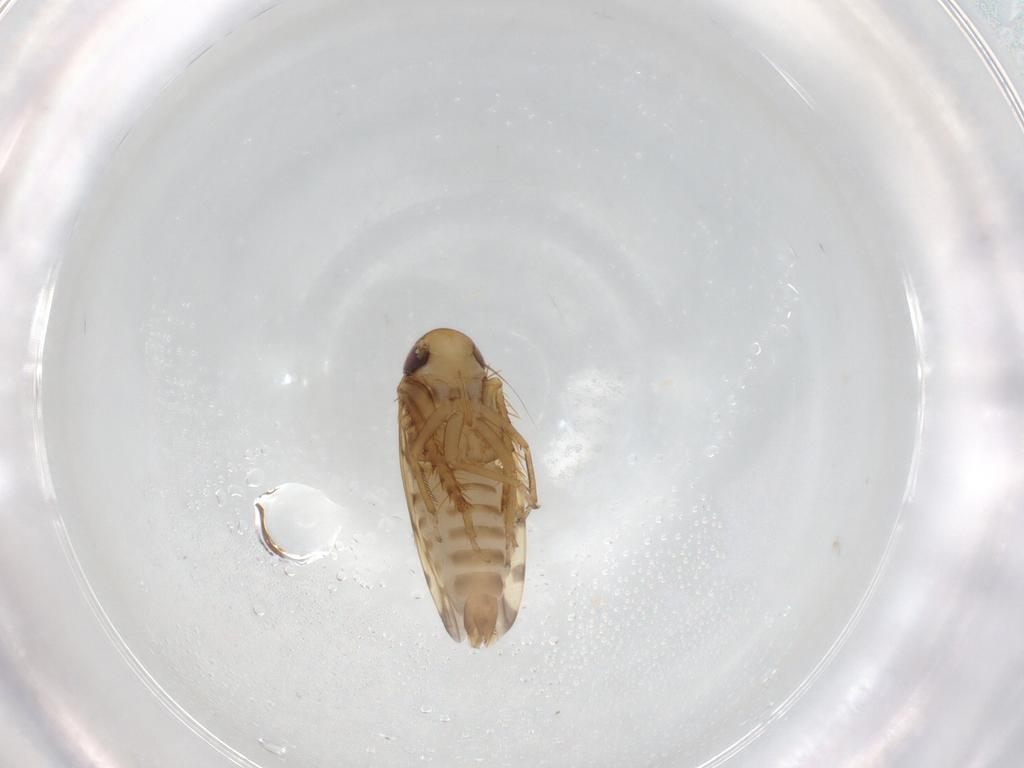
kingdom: Animalia
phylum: Arthropoda
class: Insecta
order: Hemiptera
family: Cicadellidae
